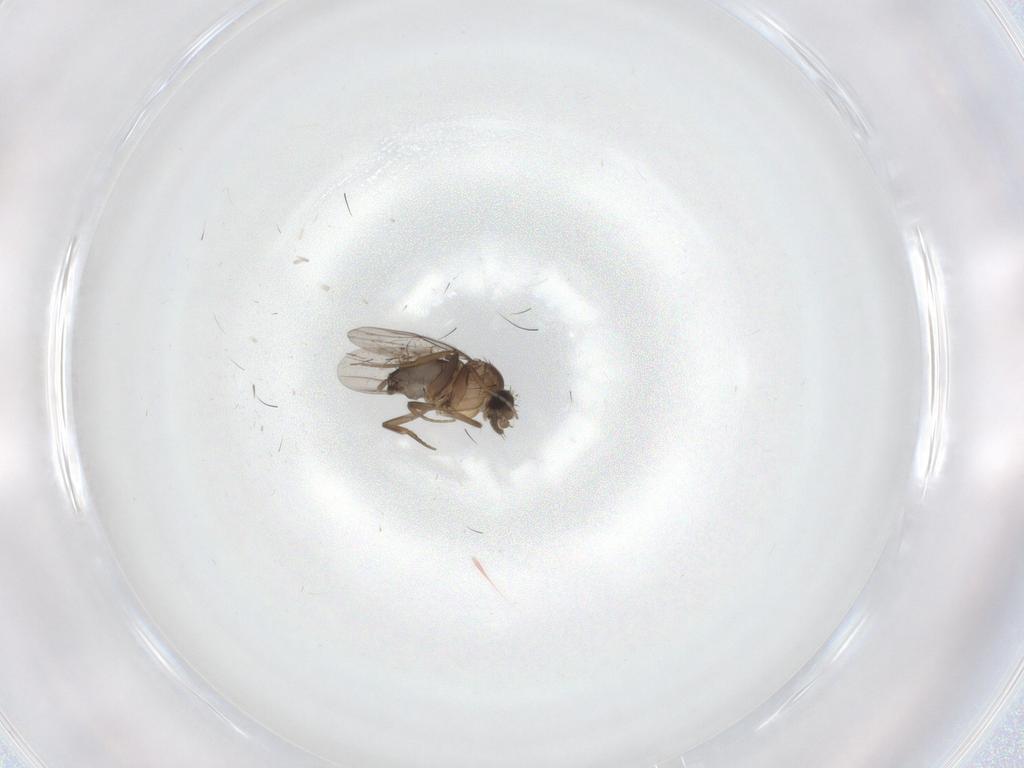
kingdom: Animalia
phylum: Arthropoda
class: Insecta
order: Diptera
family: Phoridae
